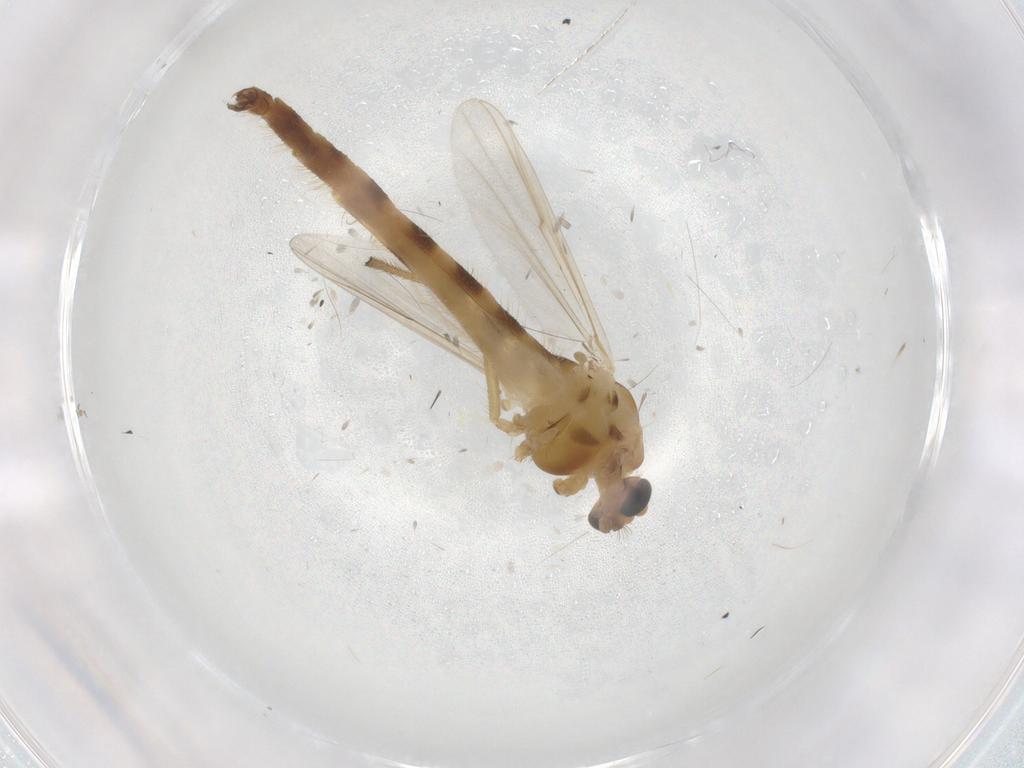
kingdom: Animalia
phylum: Arthropoda
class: Insecta
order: Diptera
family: Chironomidae
